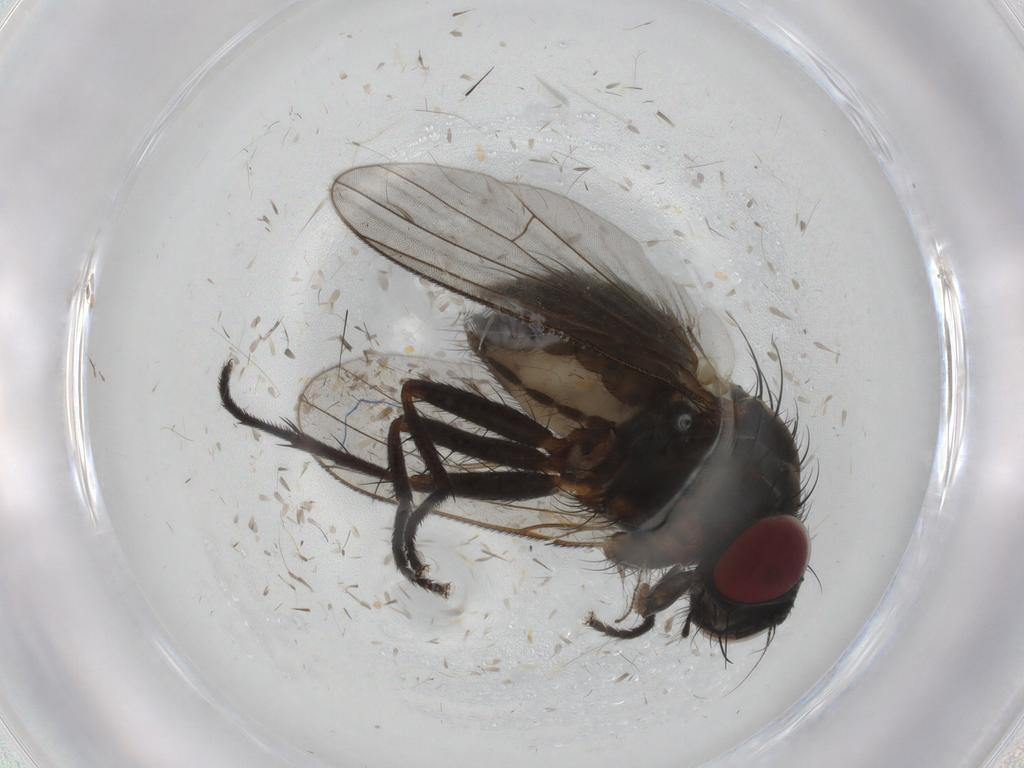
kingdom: Animalia
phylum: Arthropoda
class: Insecta
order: Diptera
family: Muscidae
